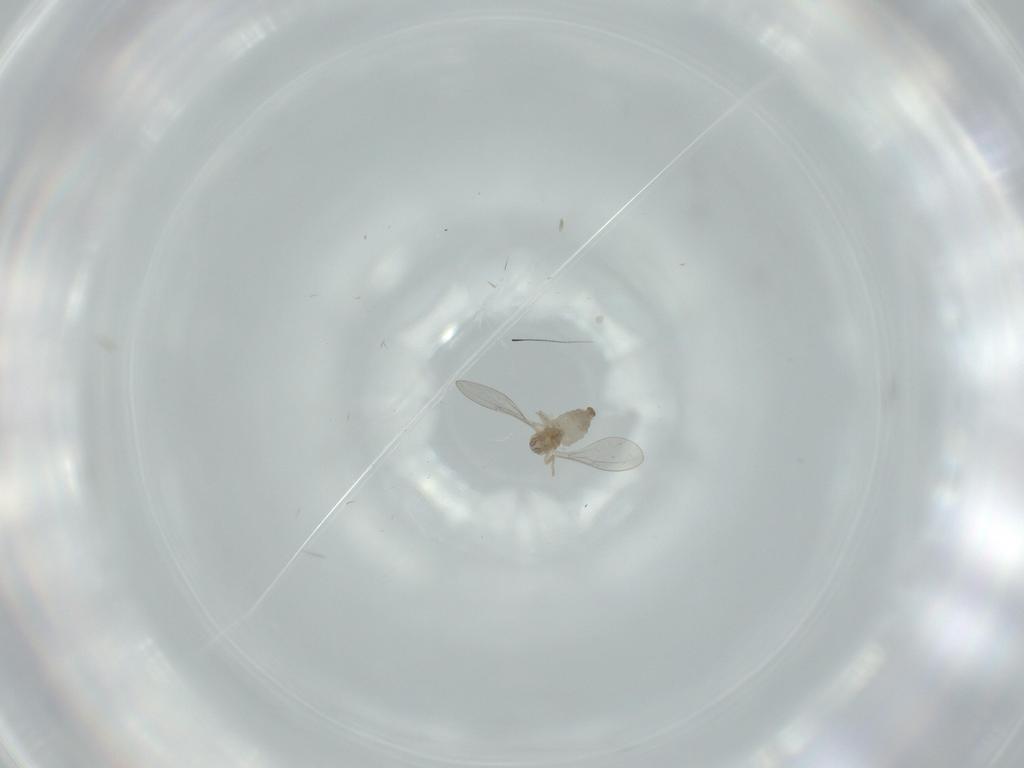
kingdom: Animalia
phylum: Arthropoda
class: Insecta
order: Diptera
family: Cecidomyiidae
